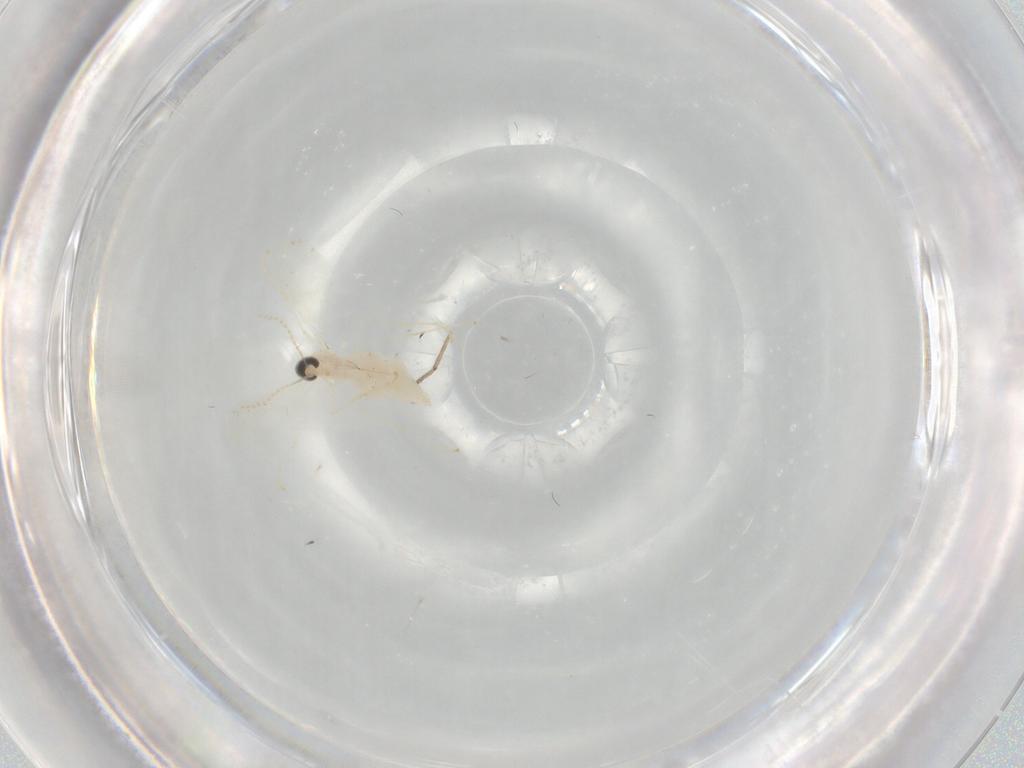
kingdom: Animalia
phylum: Arthropoda
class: Insecta
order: Diptera
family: Cecidomyiidae
